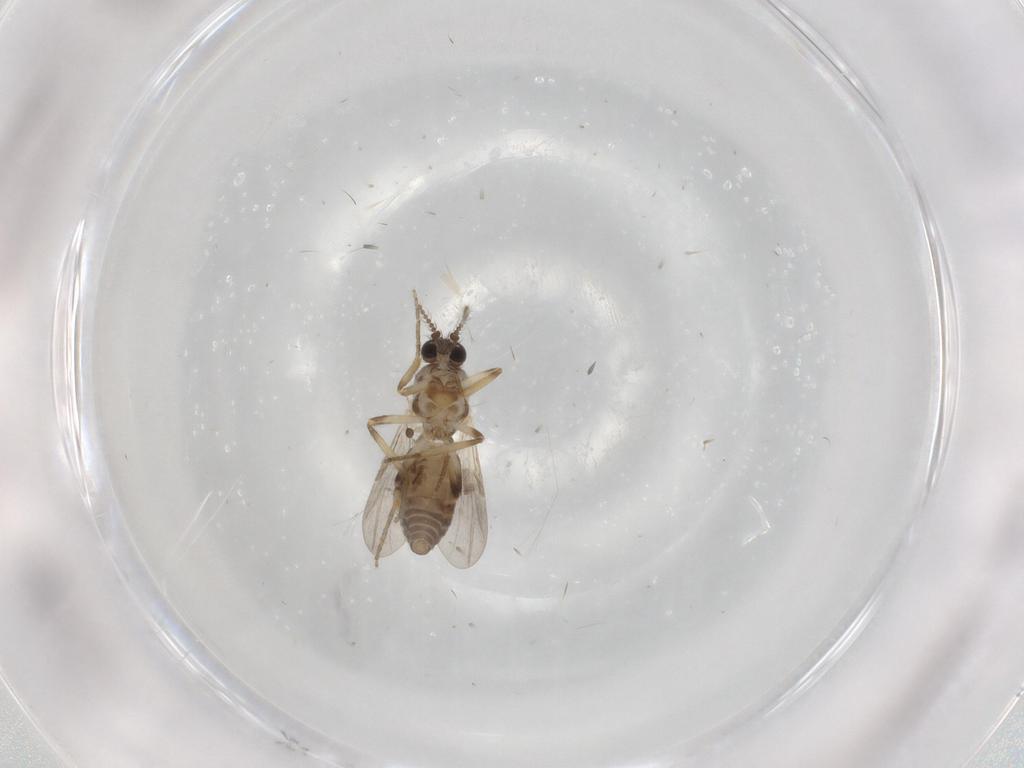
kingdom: Animalia
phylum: Arthropoda
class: Insecta
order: Diptera
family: Ceratopogonidae
